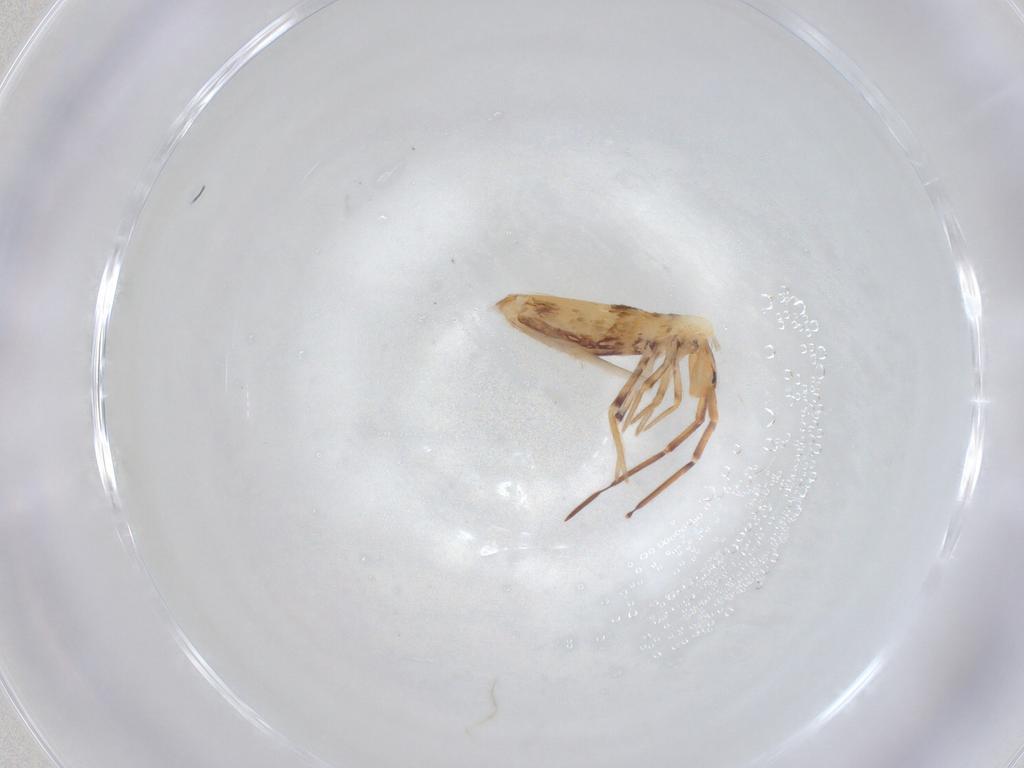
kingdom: Animalia
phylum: Arthropoda
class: Collembola
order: Poduromorpha
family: Hypogastruridae
